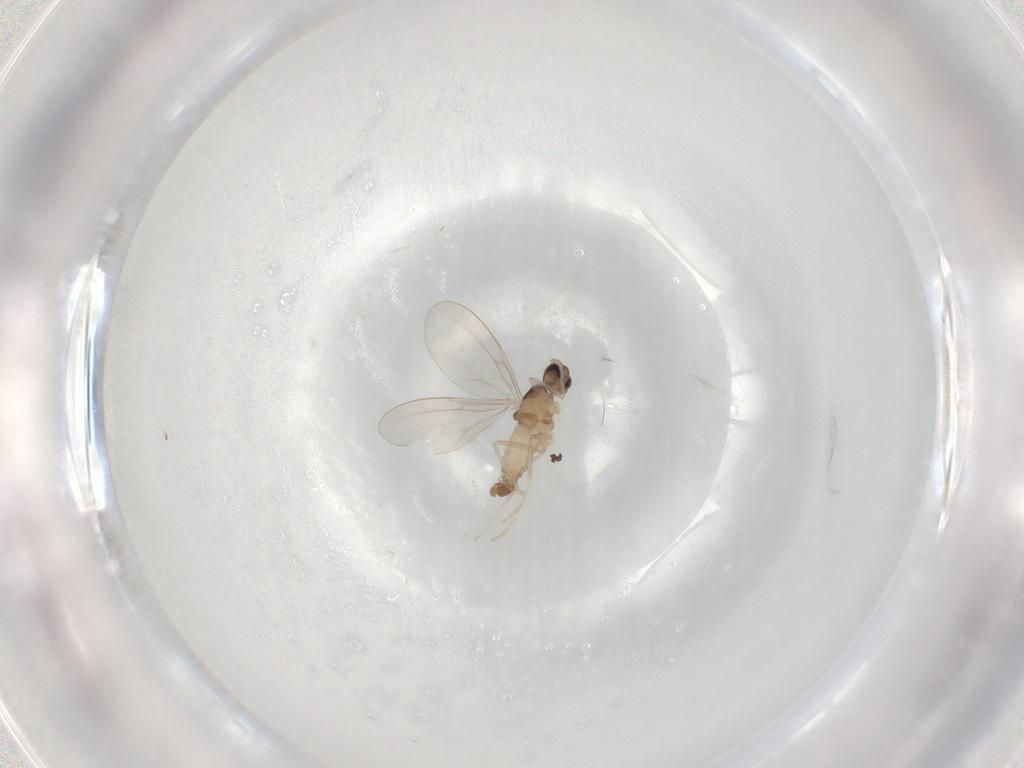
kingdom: Animalia
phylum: Arthropoda
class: Insecta
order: Diptera
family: Cecidomyiidae
